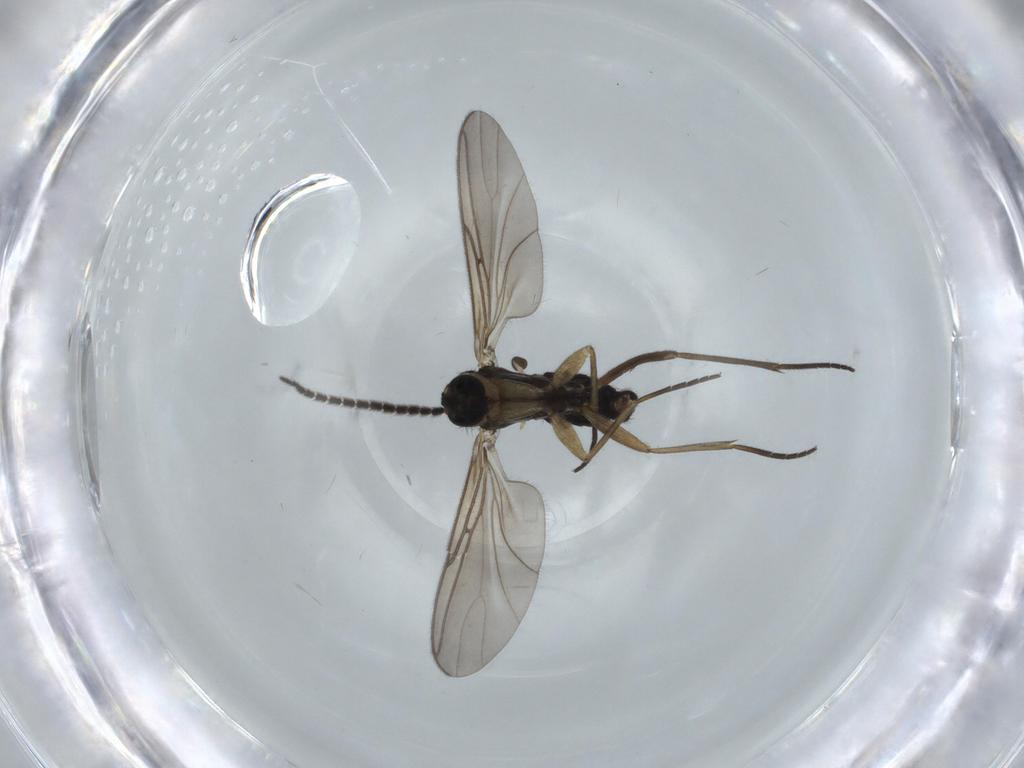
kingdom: Animalia
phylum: Arthropoda
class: Insecta
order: Diptera
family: Sciaridae
